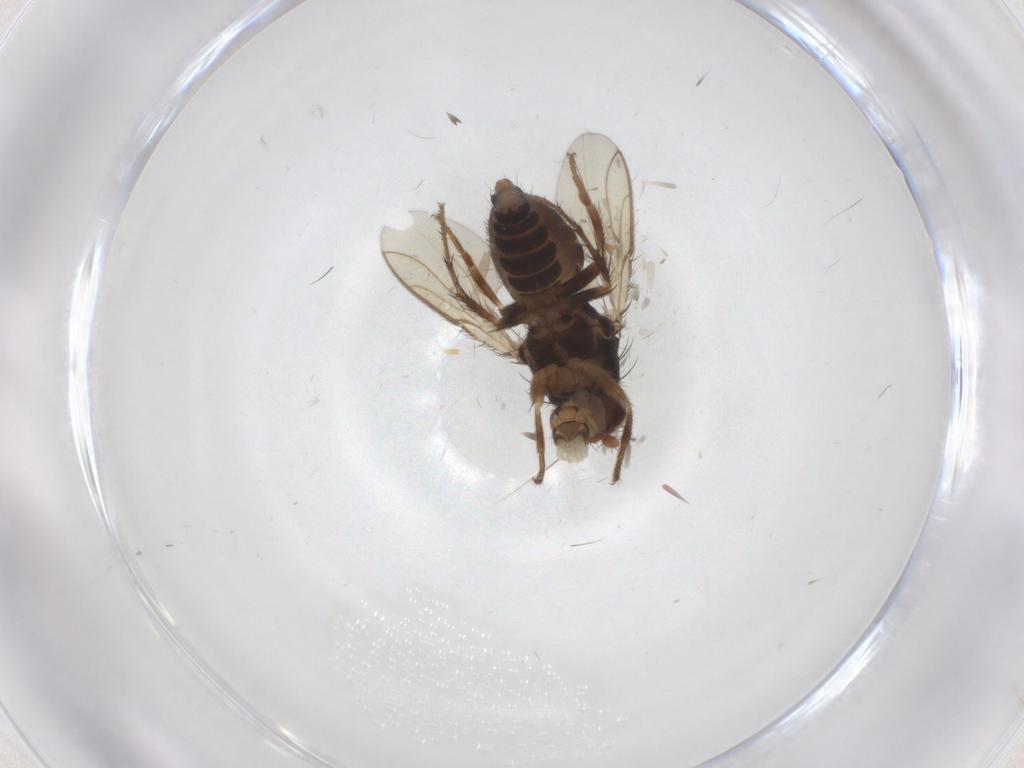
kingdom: Animalia
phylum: Arthropoda
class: Insecta
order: Diptera
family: Sphaeroceridae
